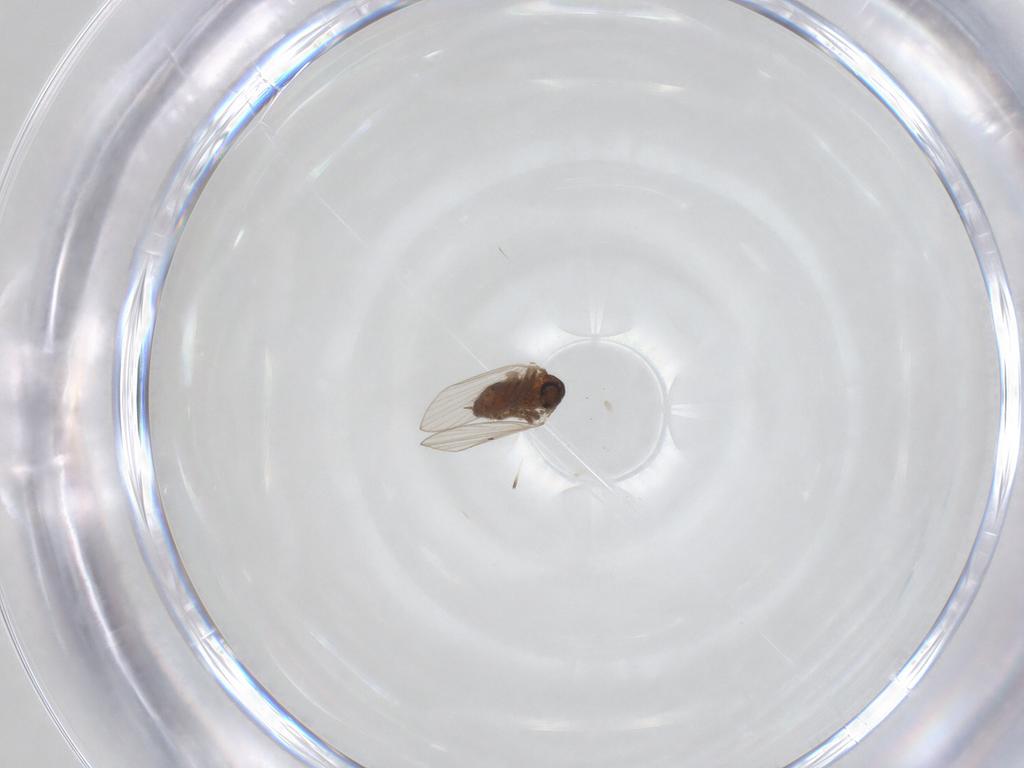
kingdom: Animalia
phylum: Arthropoda
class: Insecta
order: Diptera
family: Psychodidae
